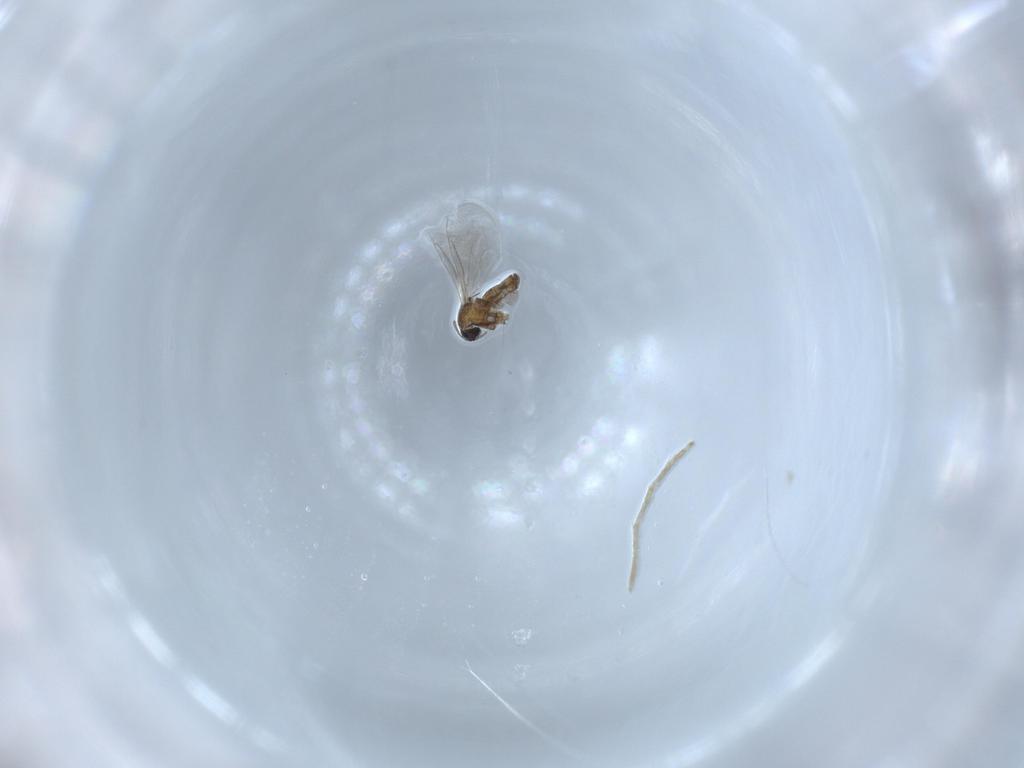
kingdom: Animalia
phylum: Arthropoda
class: Insecta
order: Diptera
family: Cecidomyiidae
